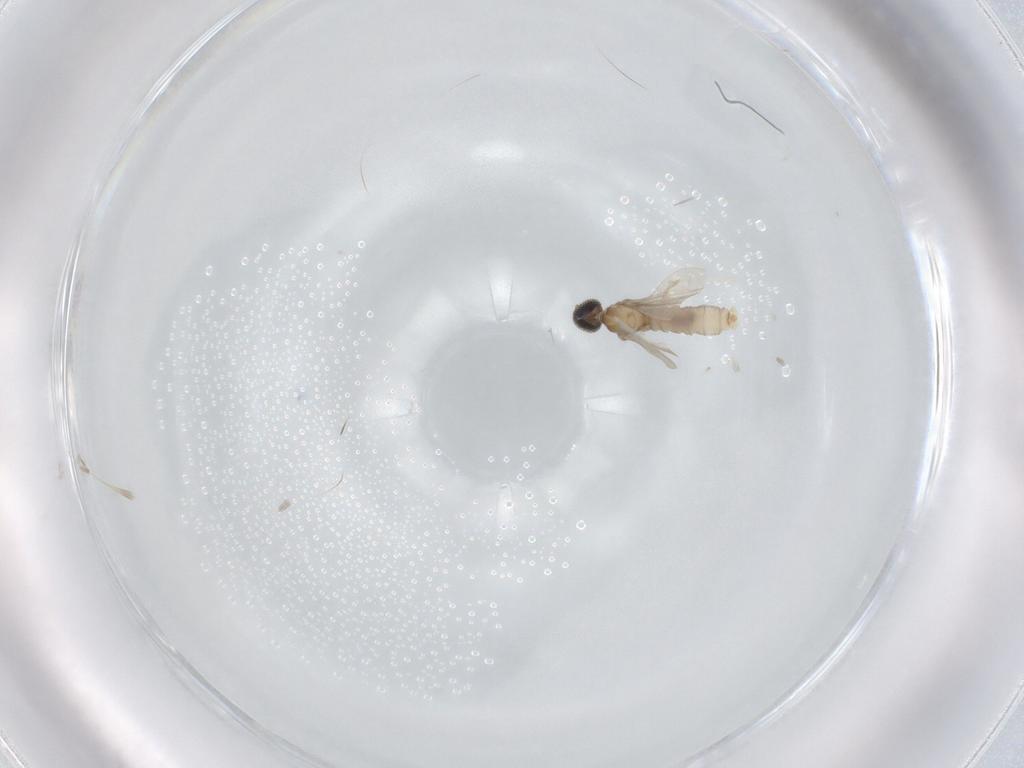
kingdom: Animalia
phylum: Arthropoda
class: Insecta
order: Diptera
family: Cecidomyiidae
